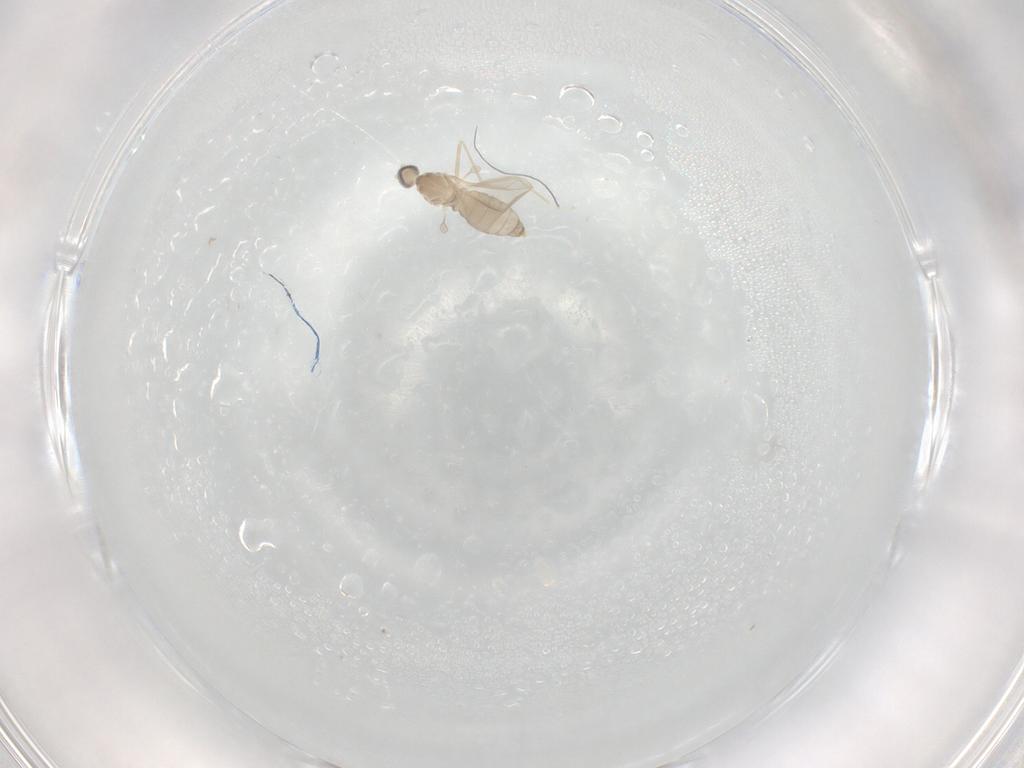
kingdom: Animalia
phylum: Arthropoda
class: Insecta
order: Diptera
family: Cecidomyiidae
